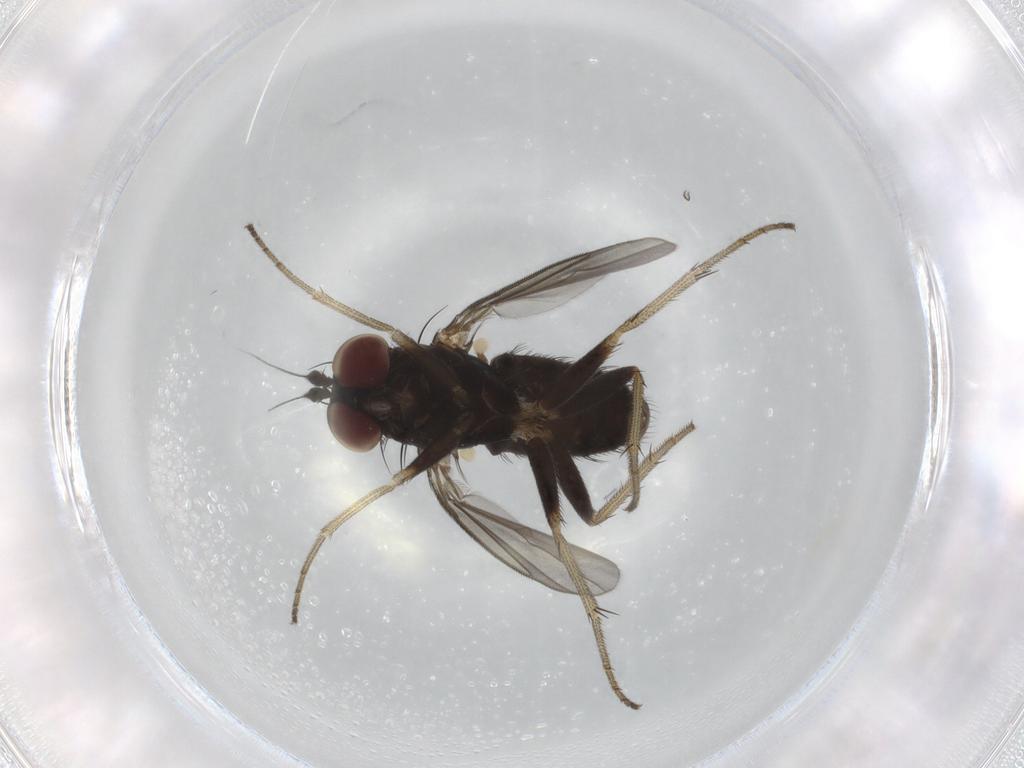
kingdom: Animalia
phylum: Arthropoda
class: Insecta
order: Diptera
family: Dolichopodidae
